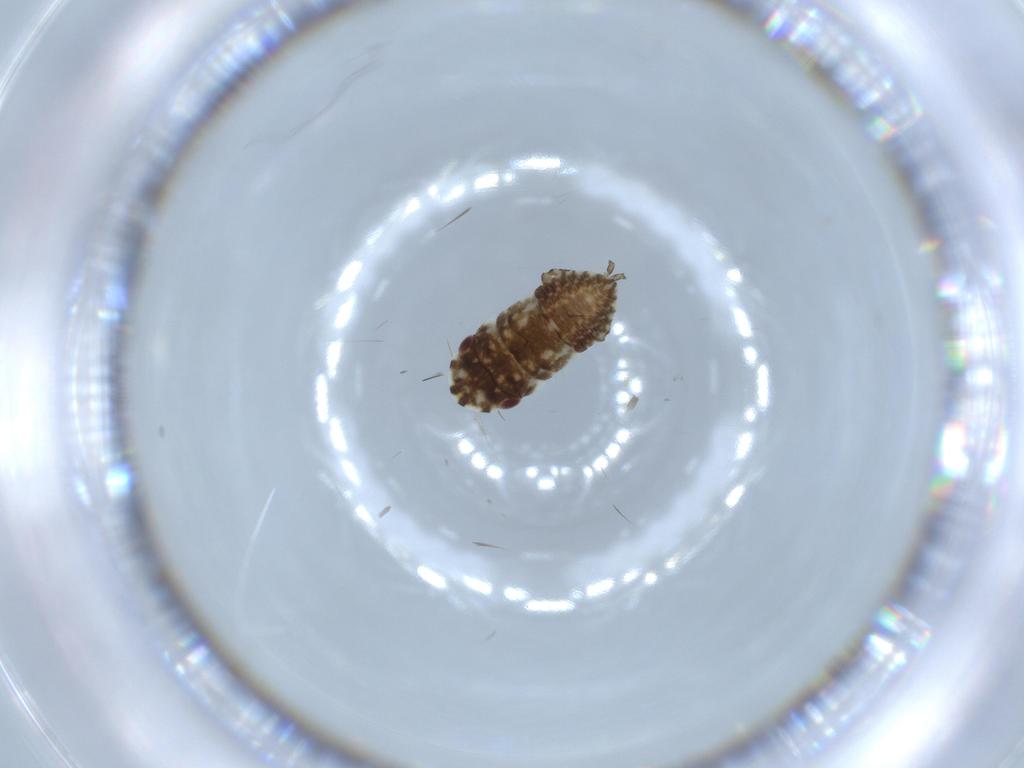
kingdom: Animalia
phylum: Arthropoda
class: Insecta
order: Hemiptera
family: Cicadellidae
